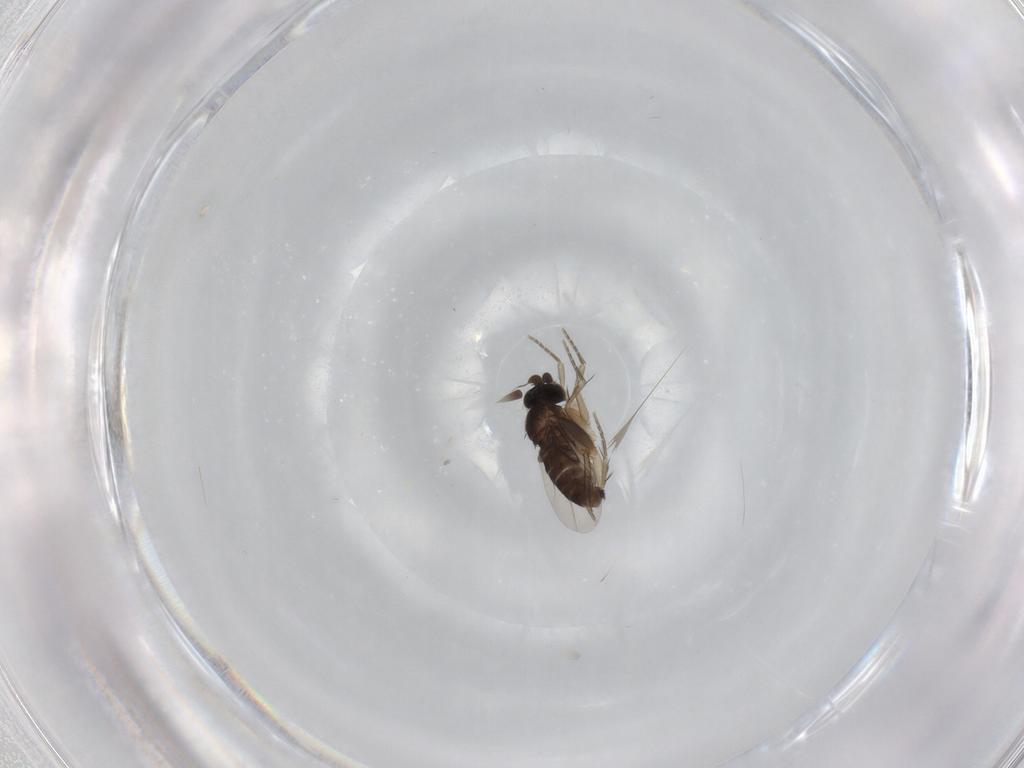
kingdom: Animalia
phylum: Arthropoda
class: Insecta
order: Diptera
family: Phoridae
